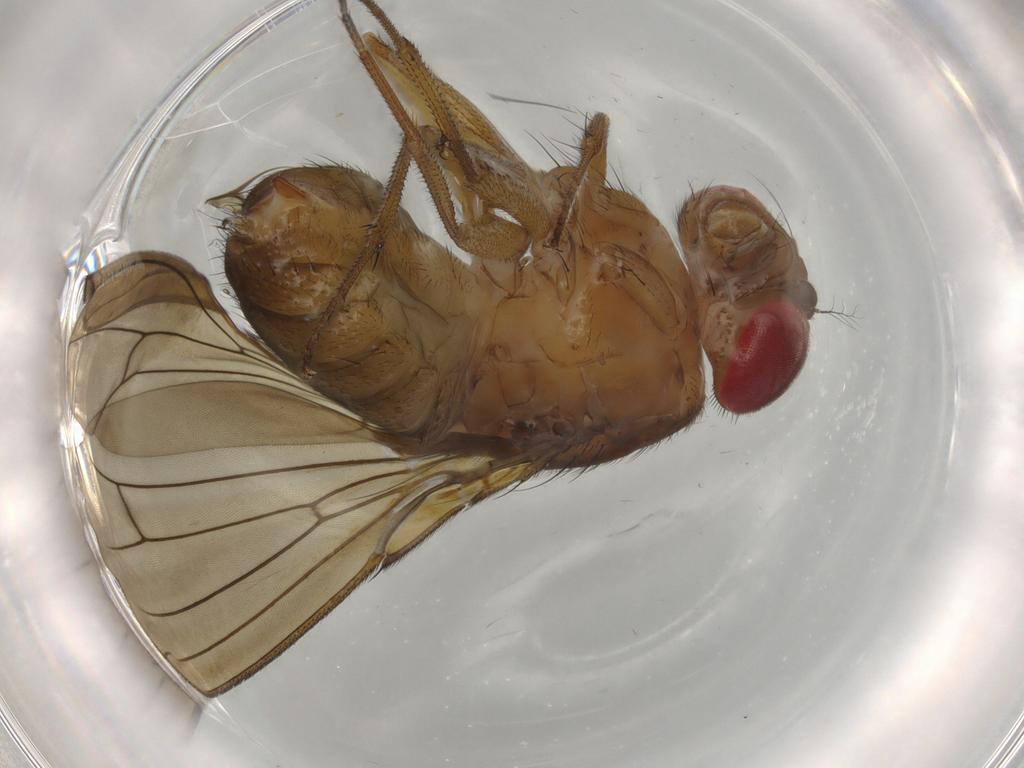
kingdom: Animalia
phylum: Arthropoda
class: Insecta
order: Diptera
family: Drosophilidae
